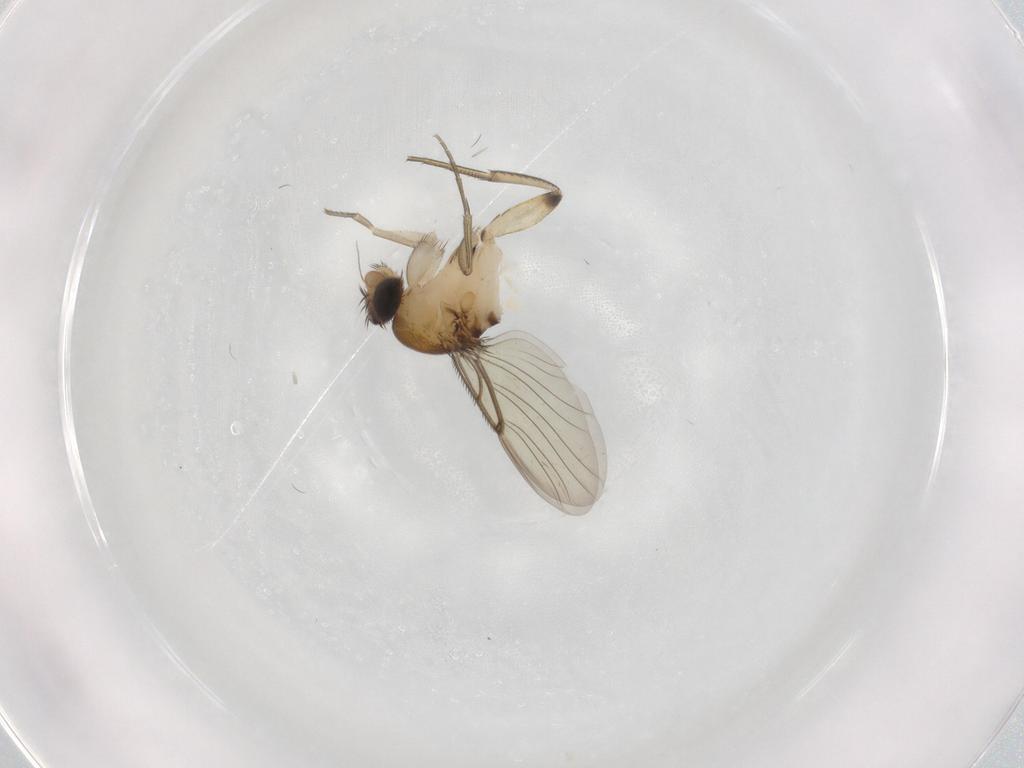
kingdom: Animalia
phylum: Arthropoda
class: Insecta
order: Diptera
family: Phoridae
